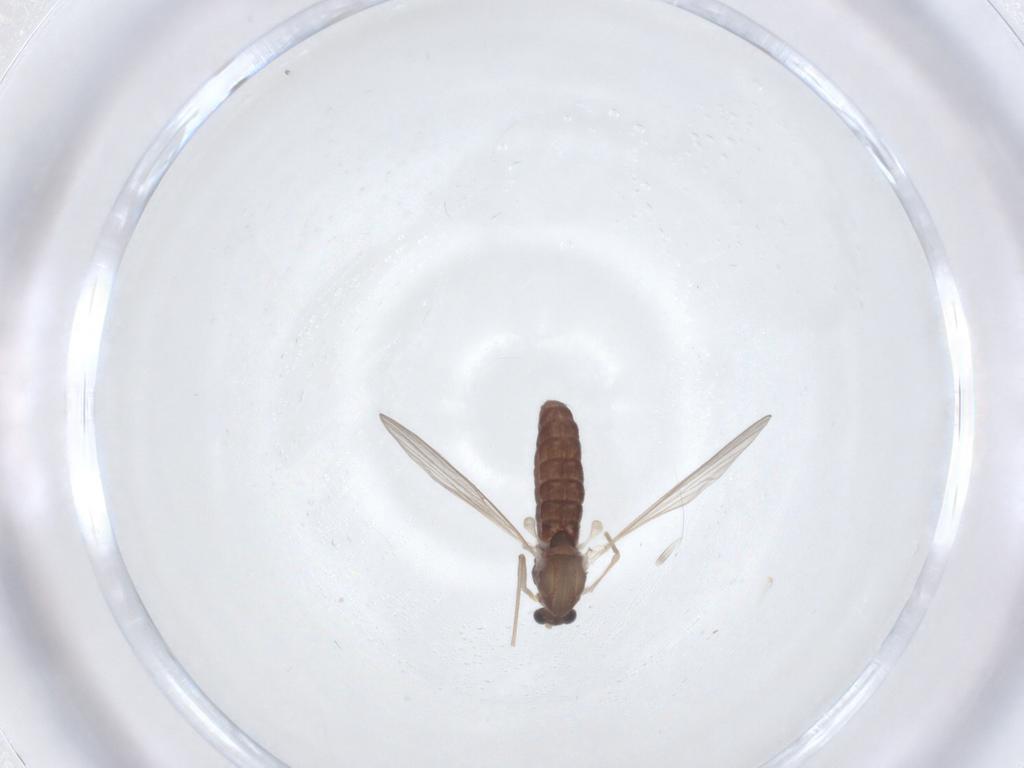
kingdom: Animalia
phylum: Arthropoda
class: Insecta
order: Diptera
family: Chironomidae
